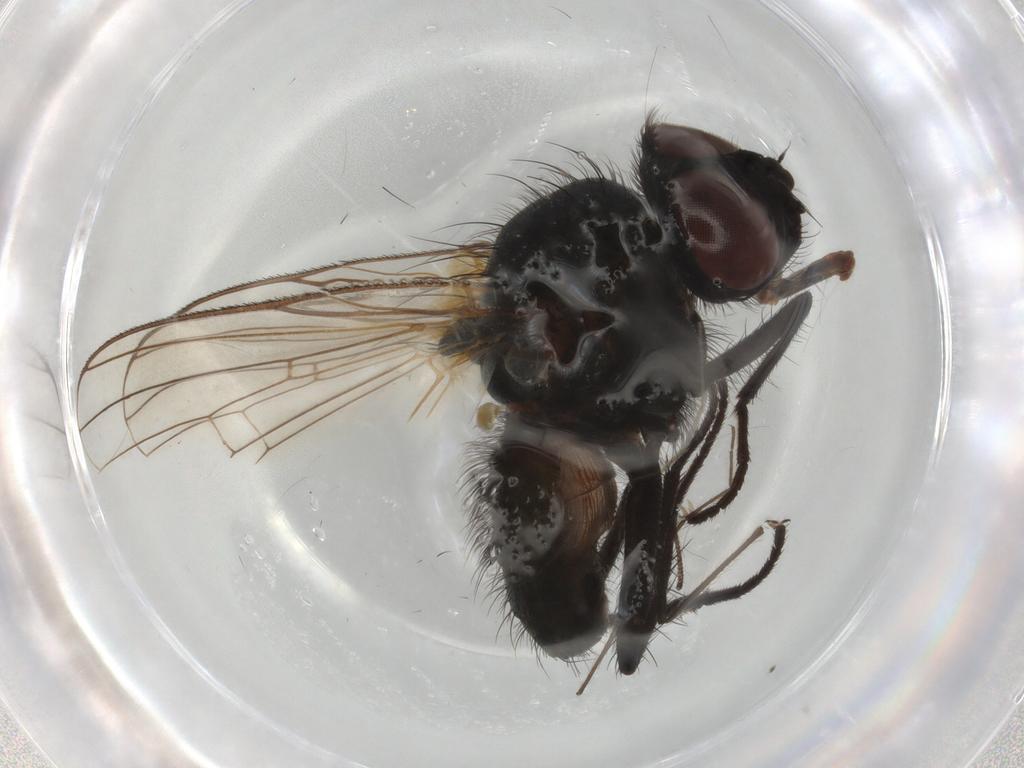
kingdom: Animalia
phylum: Arthropoda
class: Insecta
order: Diptera
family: Anthomyiidae
